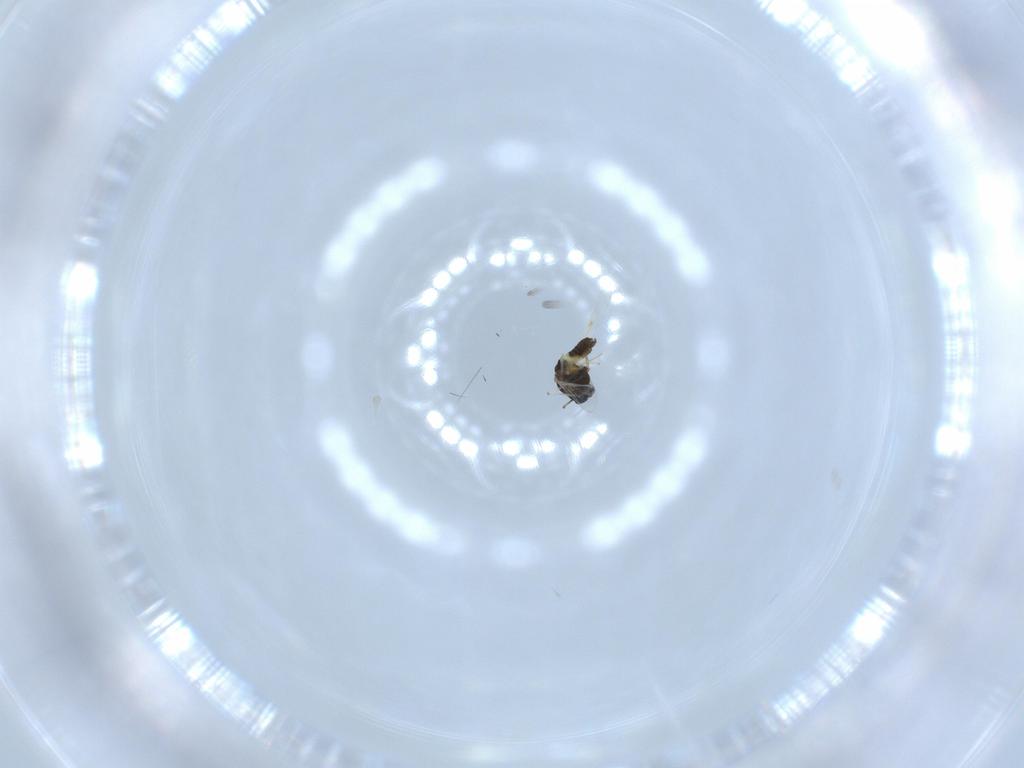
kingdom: Animalia
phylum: Arthropoda
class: Insecta
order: Diptera
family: Chironomidae
